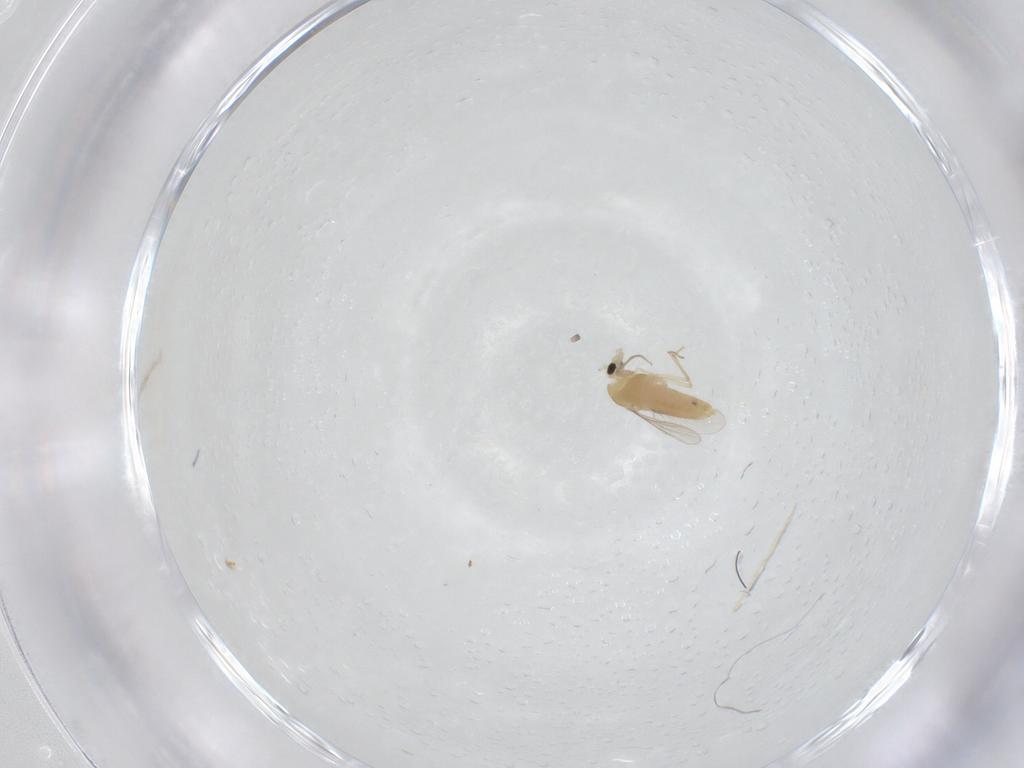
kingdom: Animalia
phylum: Arthropoda
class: Insecta
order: Diptera
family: Chironomidae
